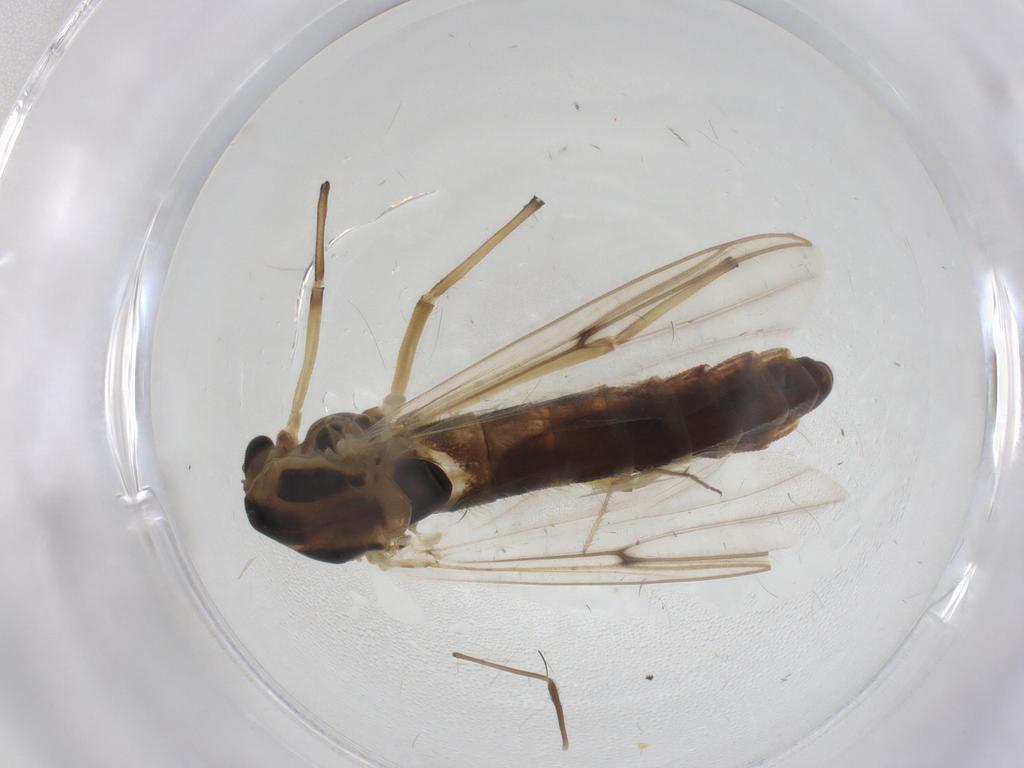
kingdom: Animalia
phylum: Arthropoda
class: Insecta
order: Diptera
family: Chironomidae
